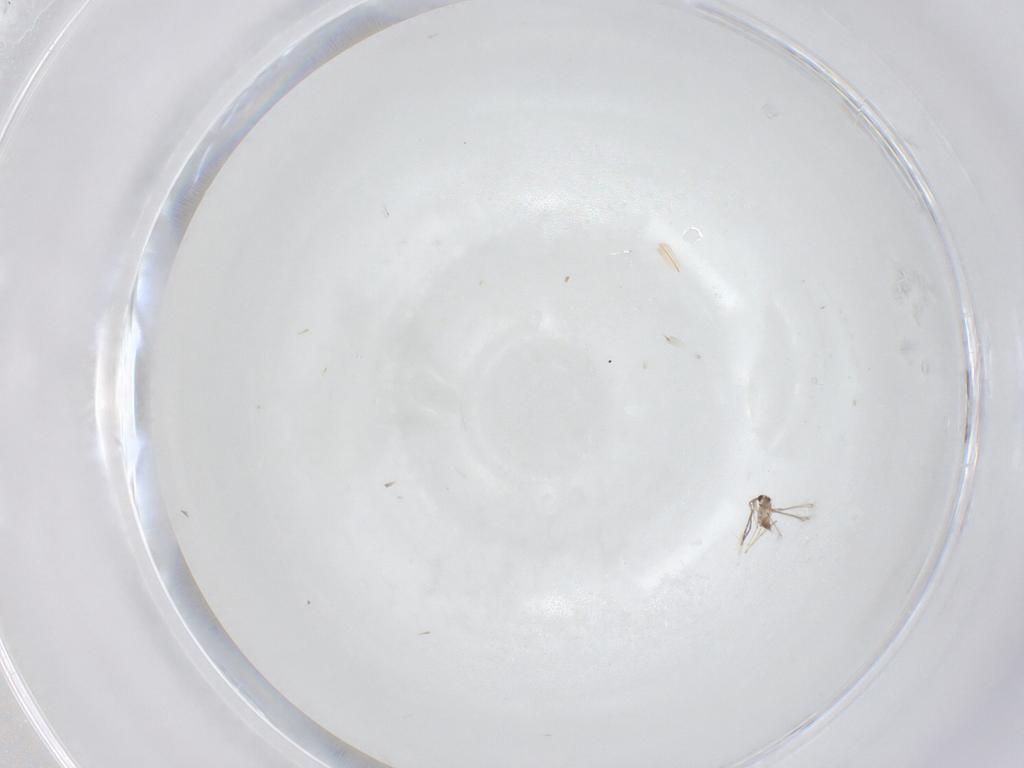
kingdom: Animalia
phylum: Arthropoda
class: Insecta
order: Hymenoptera
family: Mymaridae
